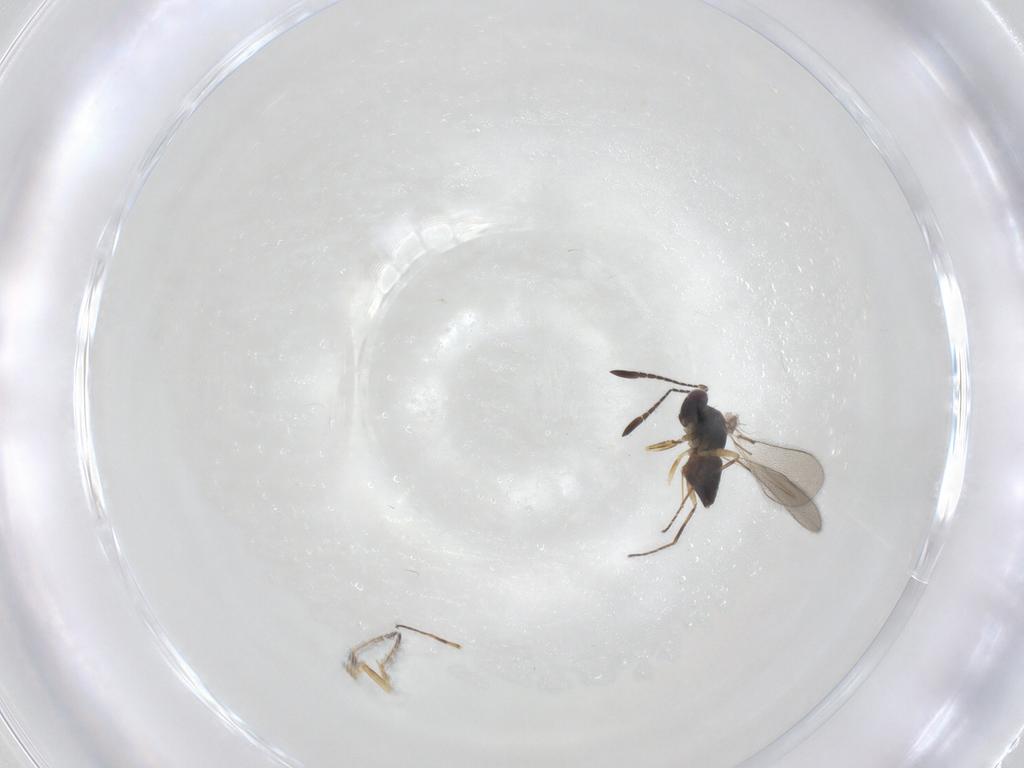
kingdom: Animalia
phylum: Arthropoda
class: Insecta
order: Hymenoptera
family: Mymaridae
